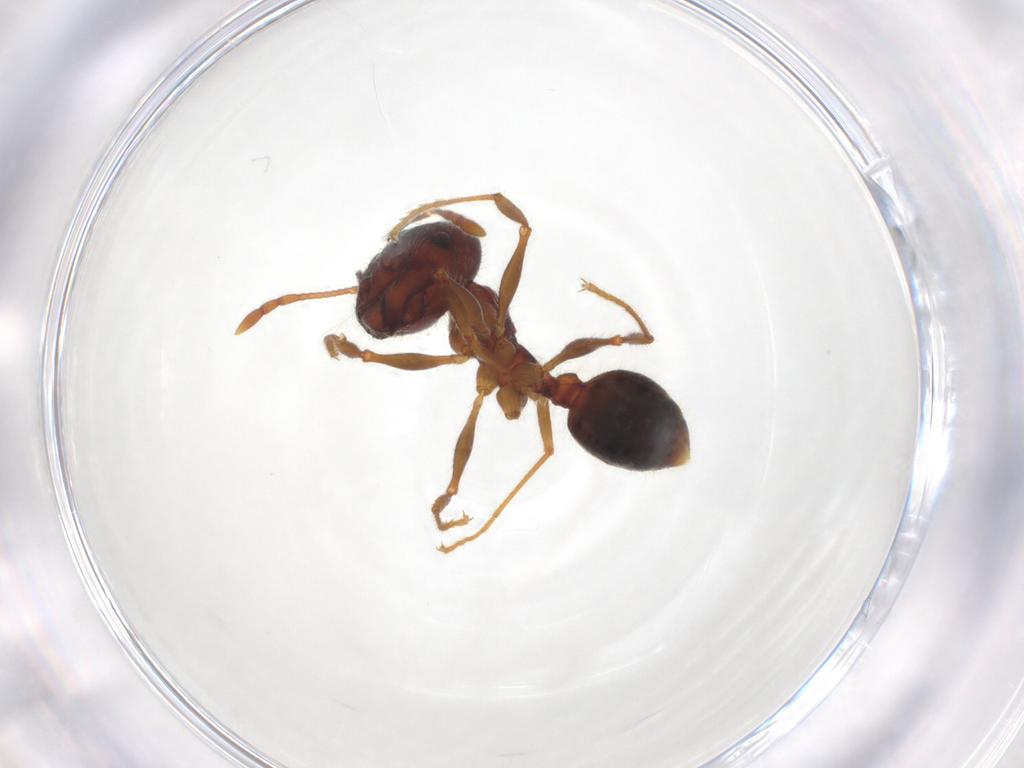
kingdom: Animalia
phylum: Arthropoda
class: Insecta
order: Hymenoptera
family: Formicidae
